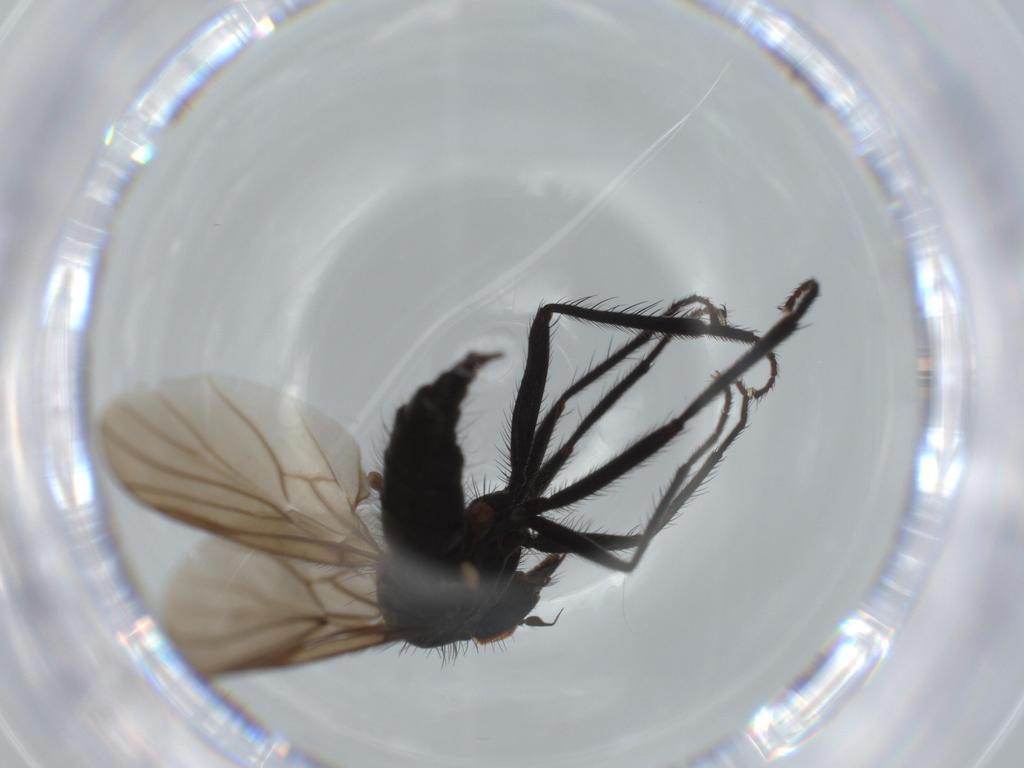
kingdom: Animalia
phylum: Arthropoda
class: Insecta
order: Diptera
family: Hybotidae
